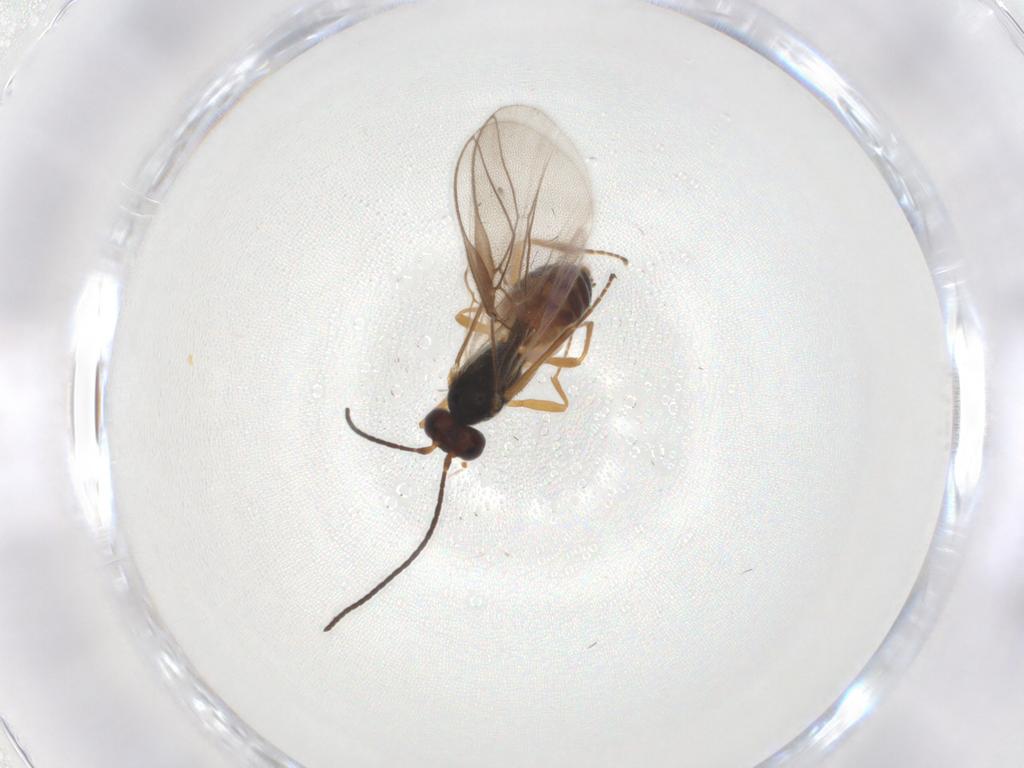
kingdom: Animalia
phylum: Arthropoda
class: Insecta
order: Hymenoptera
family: Braconidae
